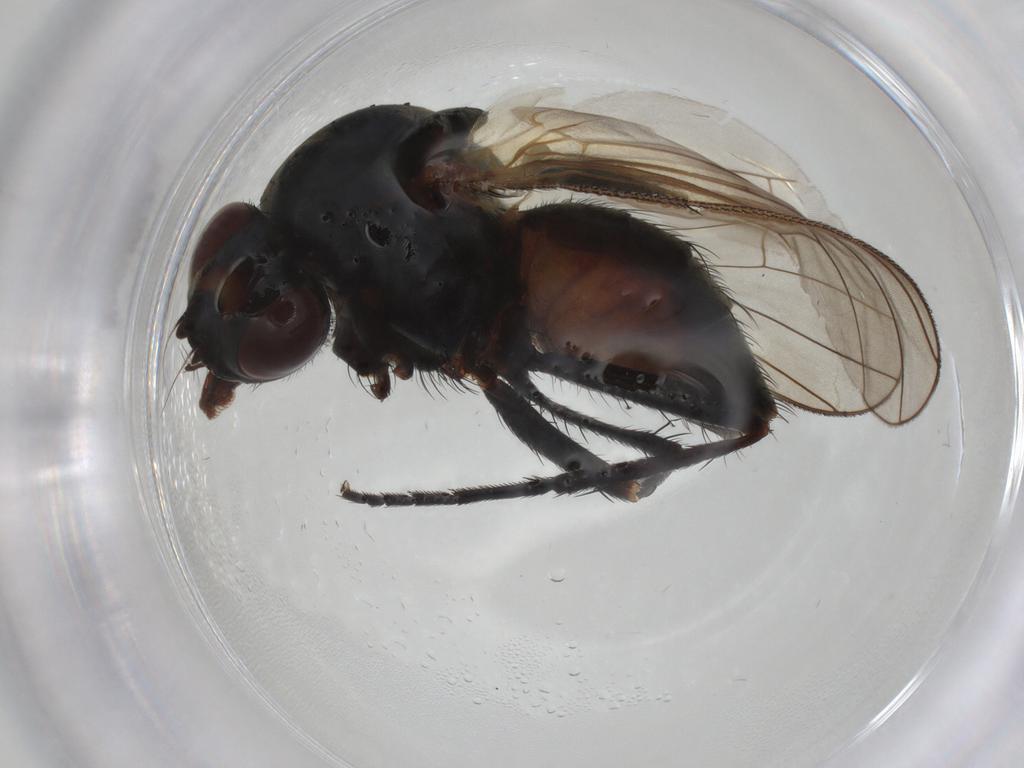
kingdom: Animalia
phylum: Arthropoda
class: Insecta
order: Diptera
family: Anthomyiidae
